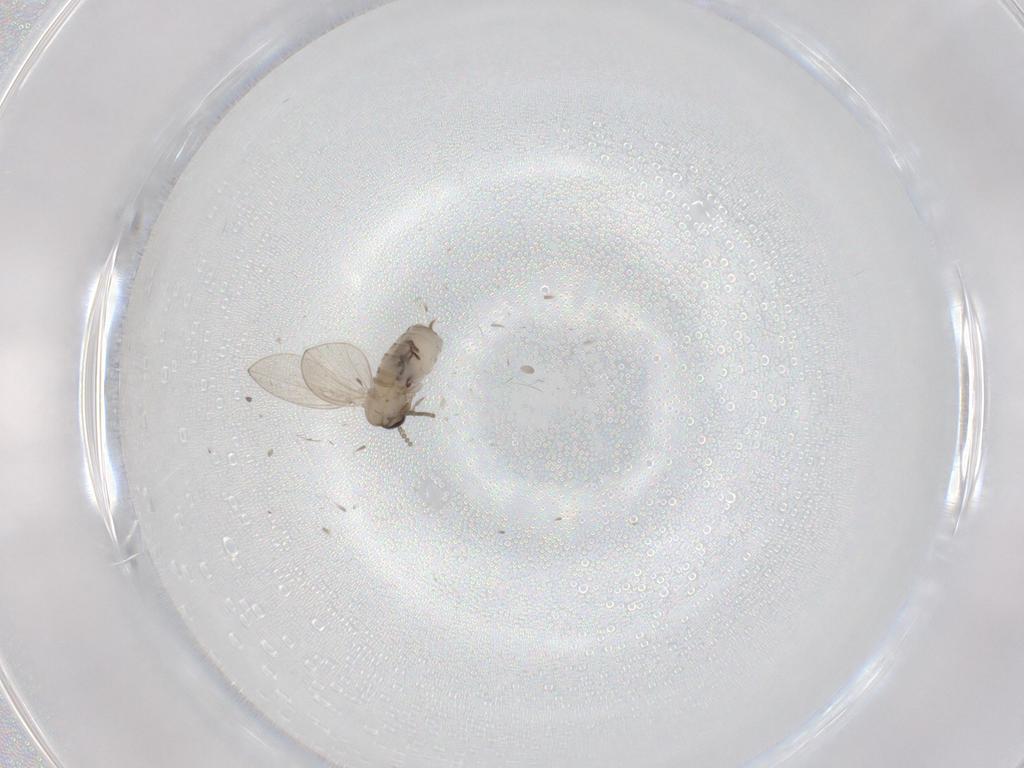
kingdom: Animalia
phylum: Arthropoda
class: Insecta
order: Diptera
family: Psychodidae
